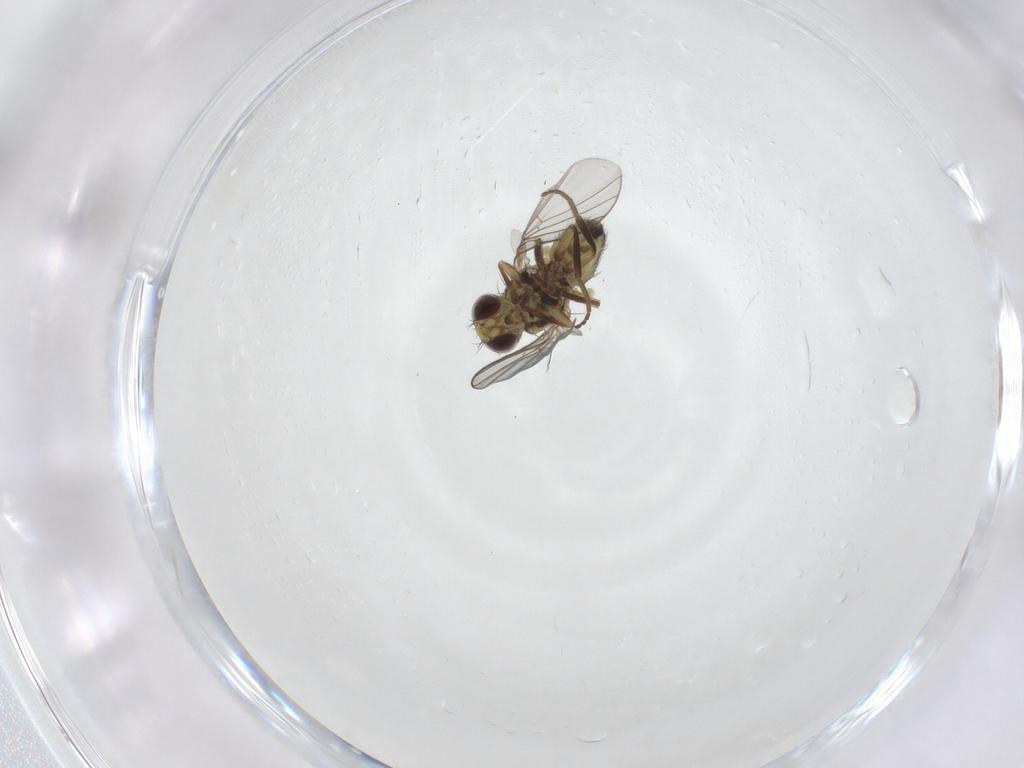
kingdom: Animalia
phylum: Arthropoda
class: Insecta
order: Diptera
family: Agromyzidae
